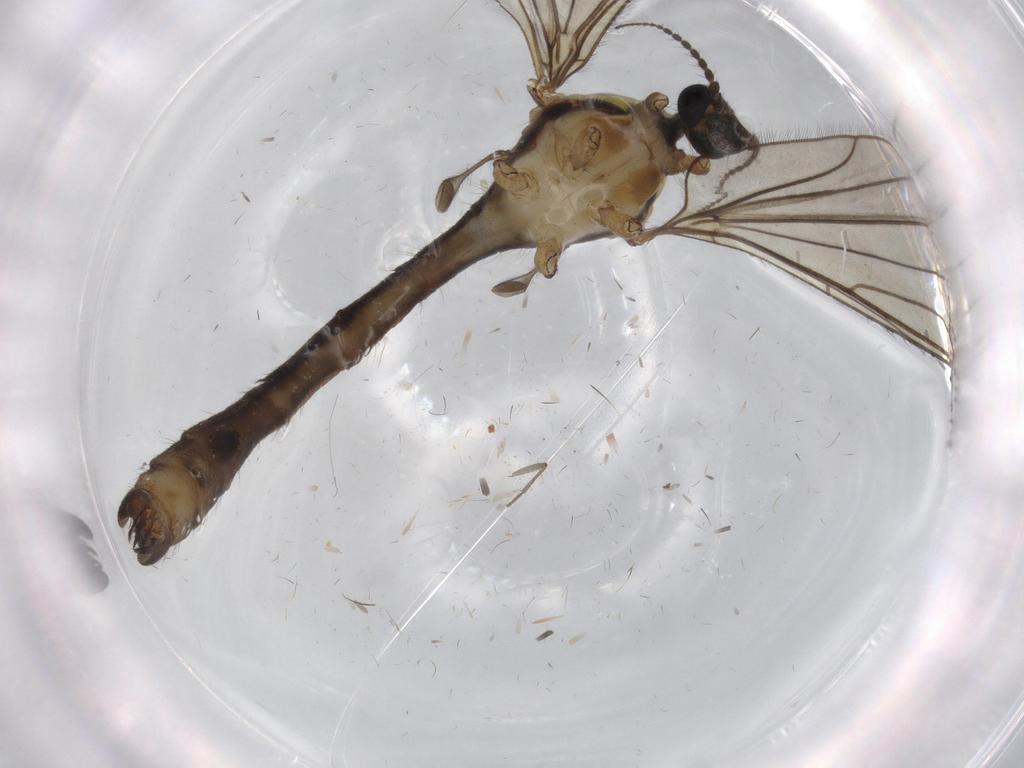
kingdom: Animalia
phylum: Arthropoda
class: Insecta
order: Diptera
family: Limoniidae
